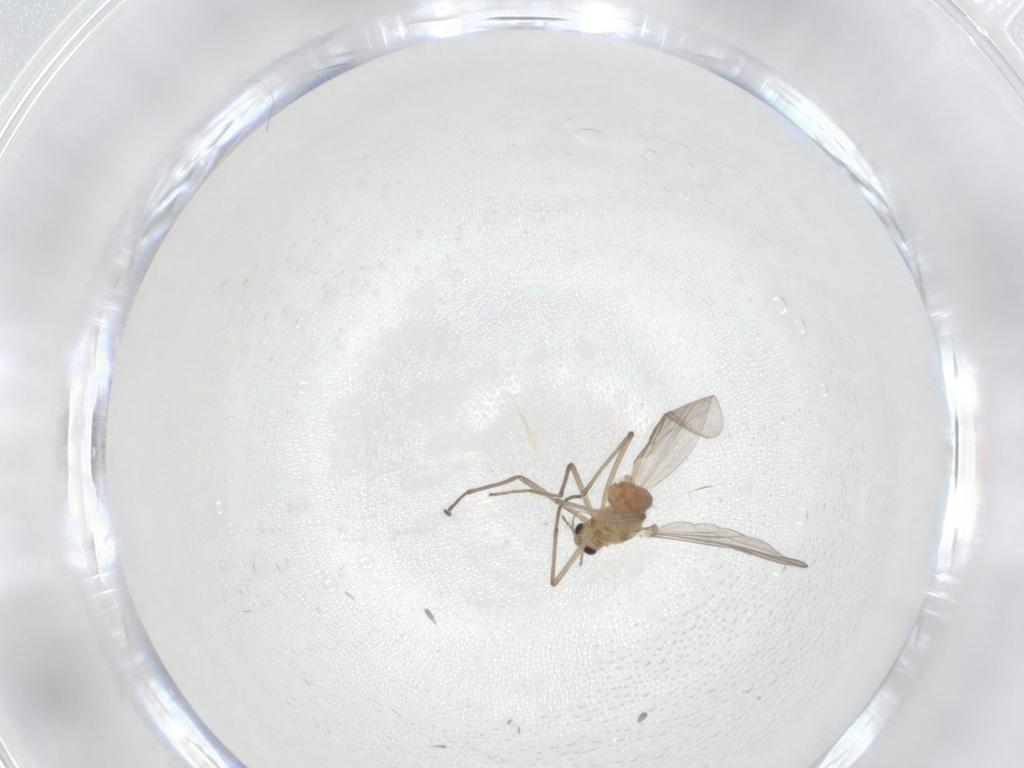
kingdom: Animalia
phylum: Arthropoda
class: Insecta
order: Diptera
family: Chironomidae
